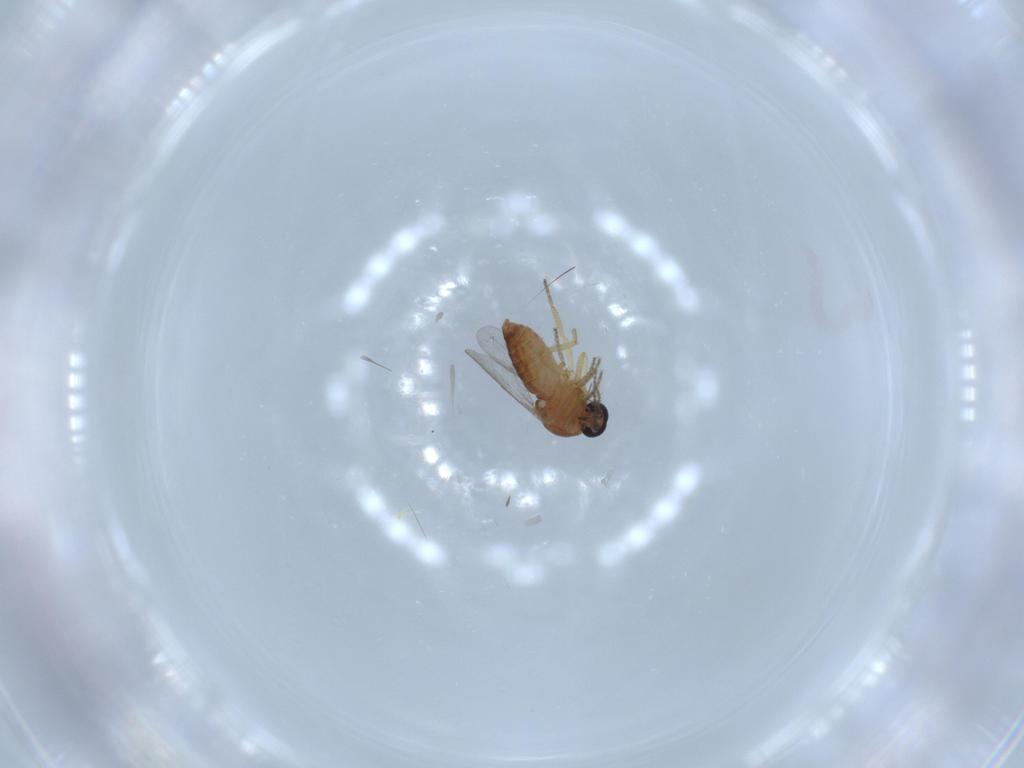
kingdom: Animalia
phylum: Arthropoda
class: Insecta
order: Diptera
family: Ceratopogonidae
